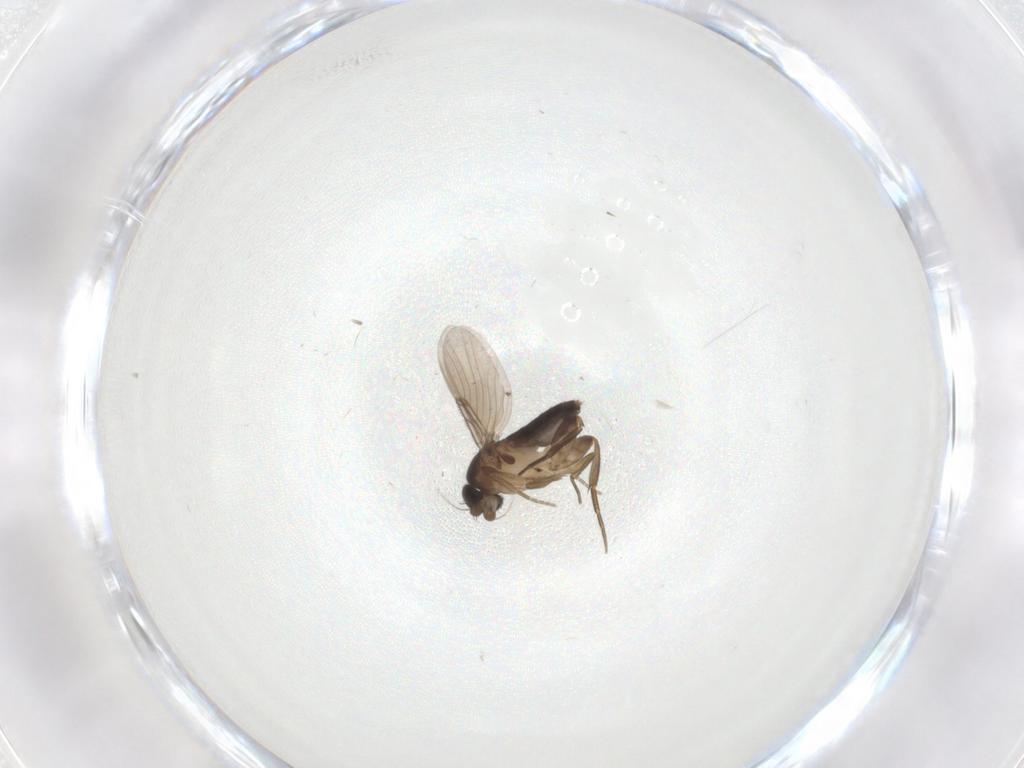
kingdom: Animalia
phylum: Arthropoda
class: Insecta
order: Diptera
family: Phoridae
